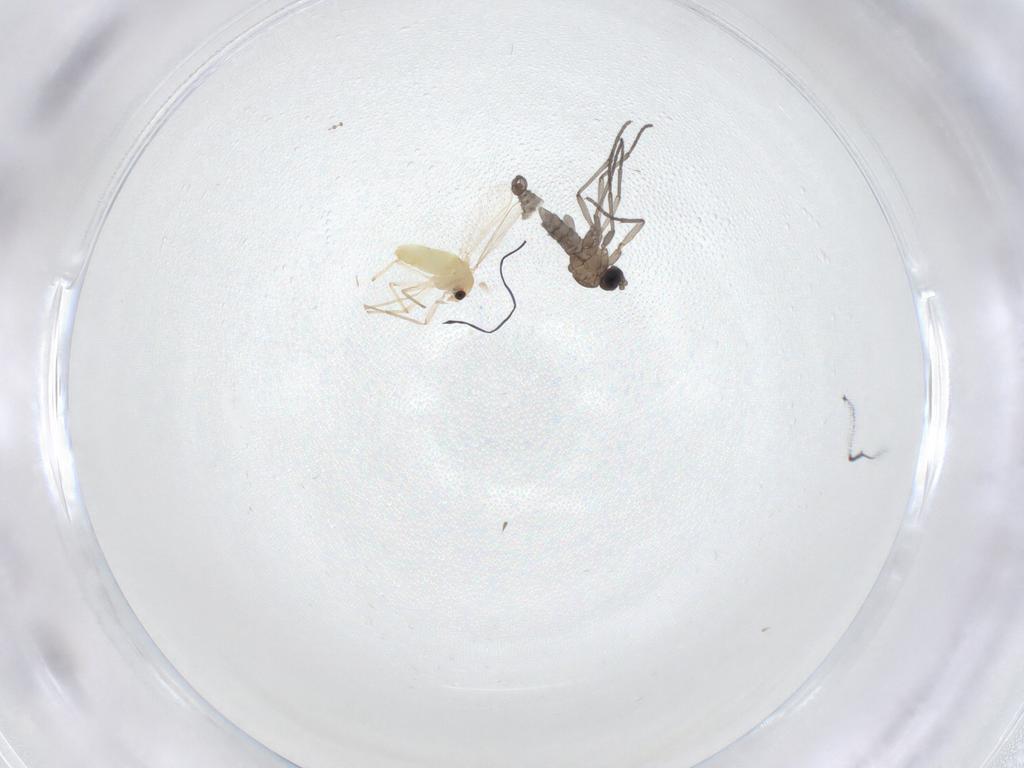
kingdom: Animalia
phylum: Arthropoda
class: Insecta
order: Diptera
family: Chironomidae
